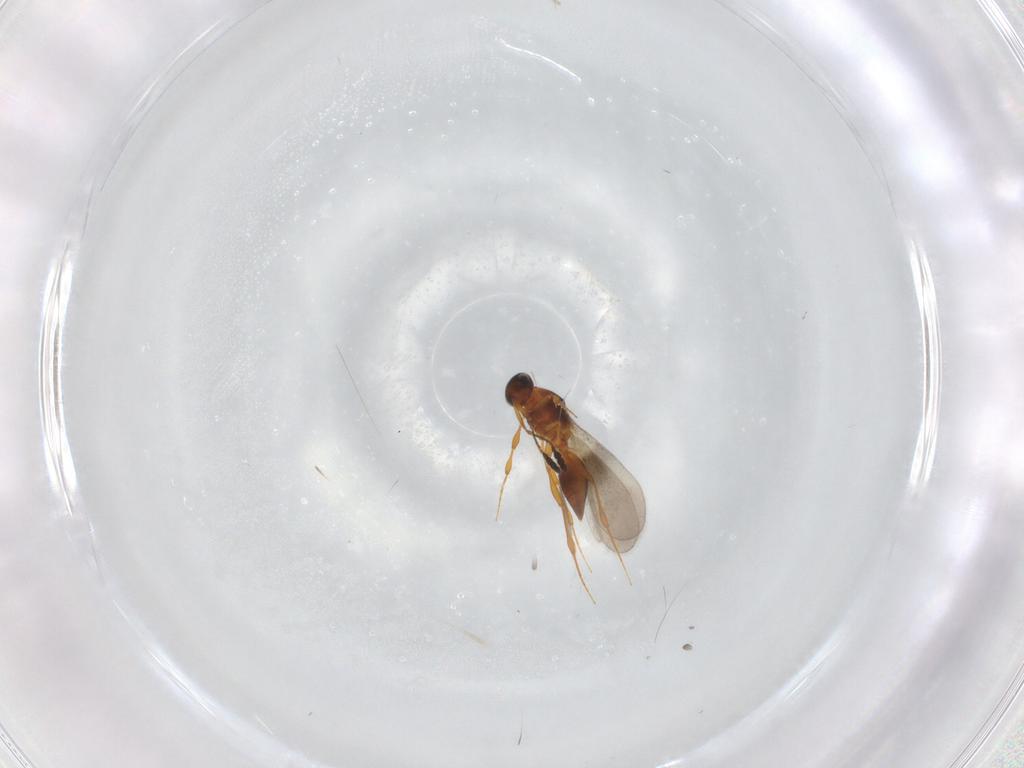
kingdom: Animalia
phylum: Arthropoda
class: Insecta
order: Hymenoptera
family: Platygastridae
